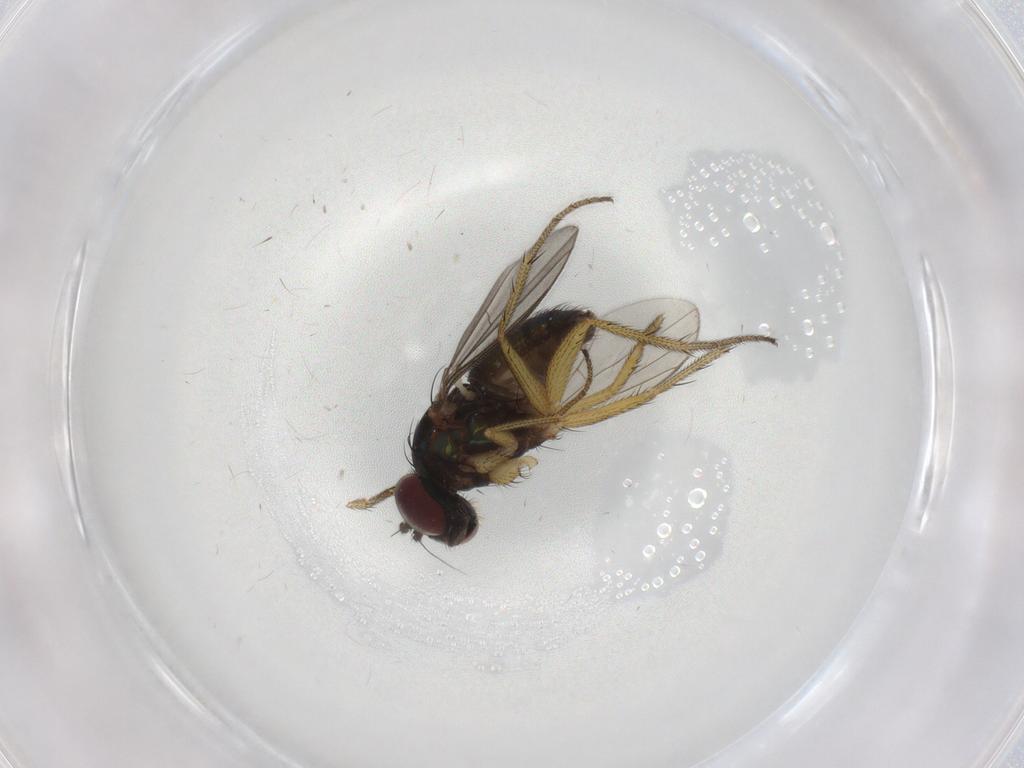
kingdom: Animalia
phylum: Arthropoda
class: Insecta
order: Diptera
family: Dolichopodidae
